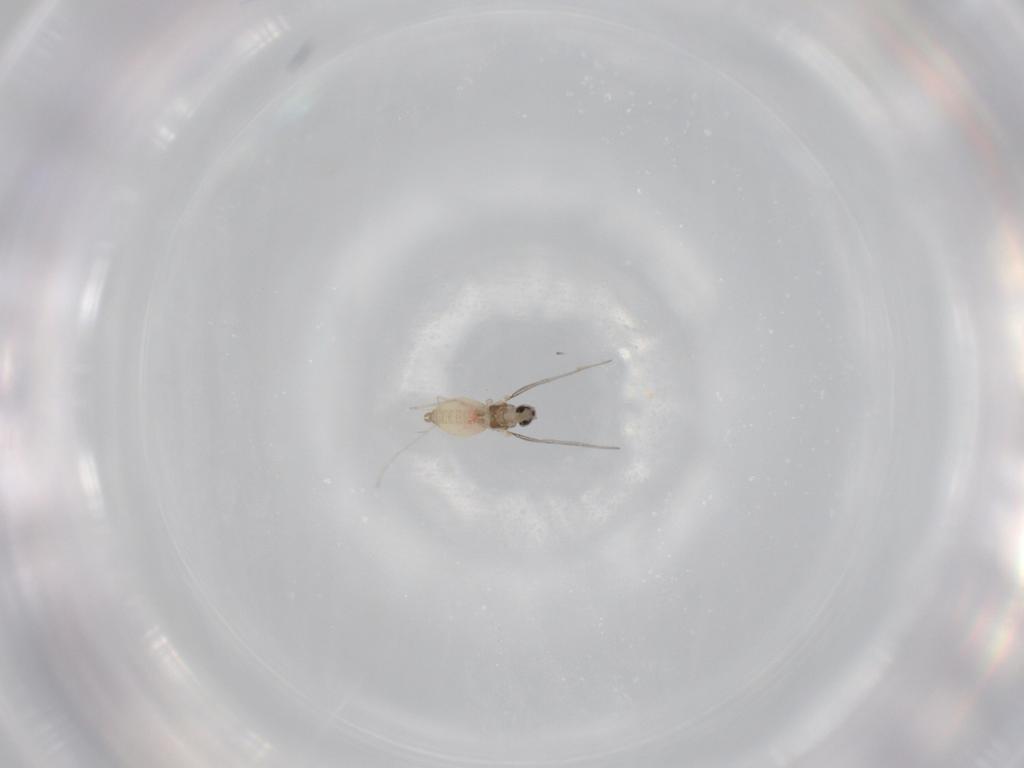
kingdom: Animalia
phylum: Arthropoda
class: Insecta
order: Diptera
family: Cecidomyiidae
